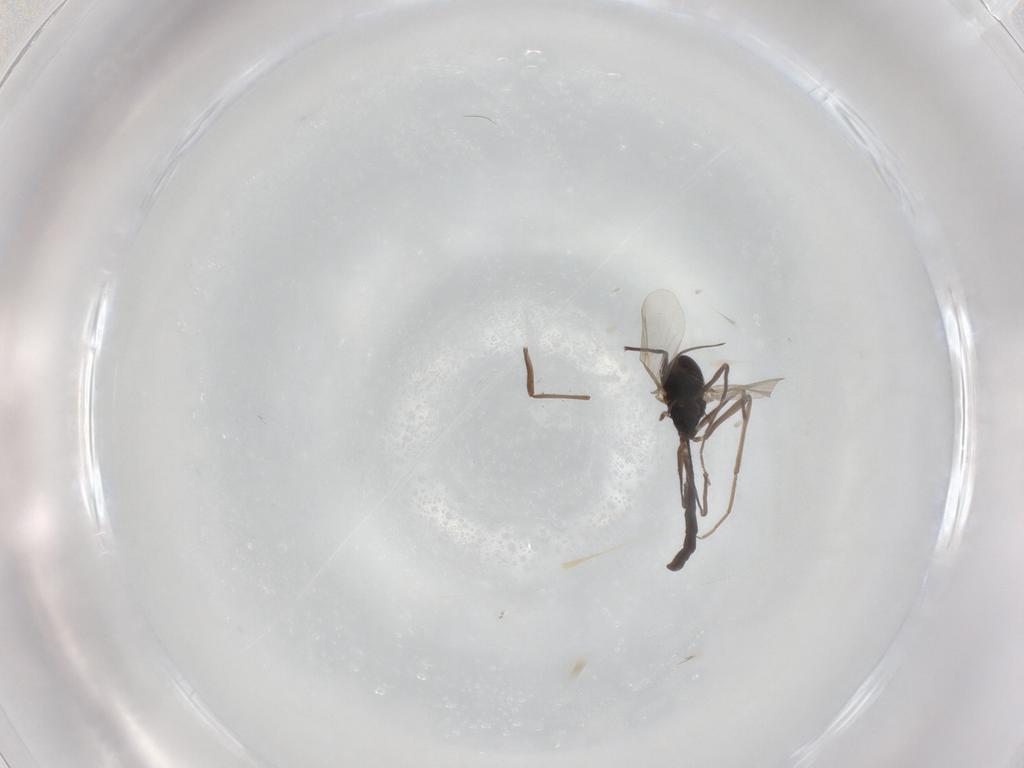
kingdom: Animalia
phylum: Arthropoda
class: Insecta
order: Diptera
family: Chironomidae
